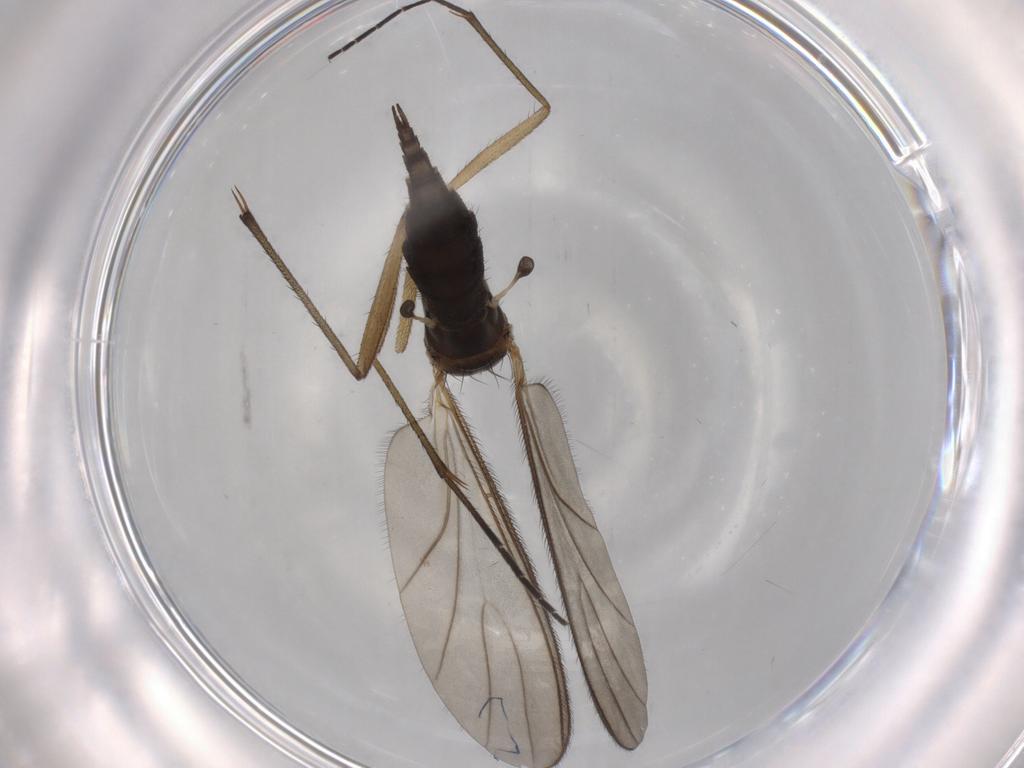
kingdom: Animalia
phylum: Arthropoda
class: Insecta
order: Diptera
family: Sciaridae
